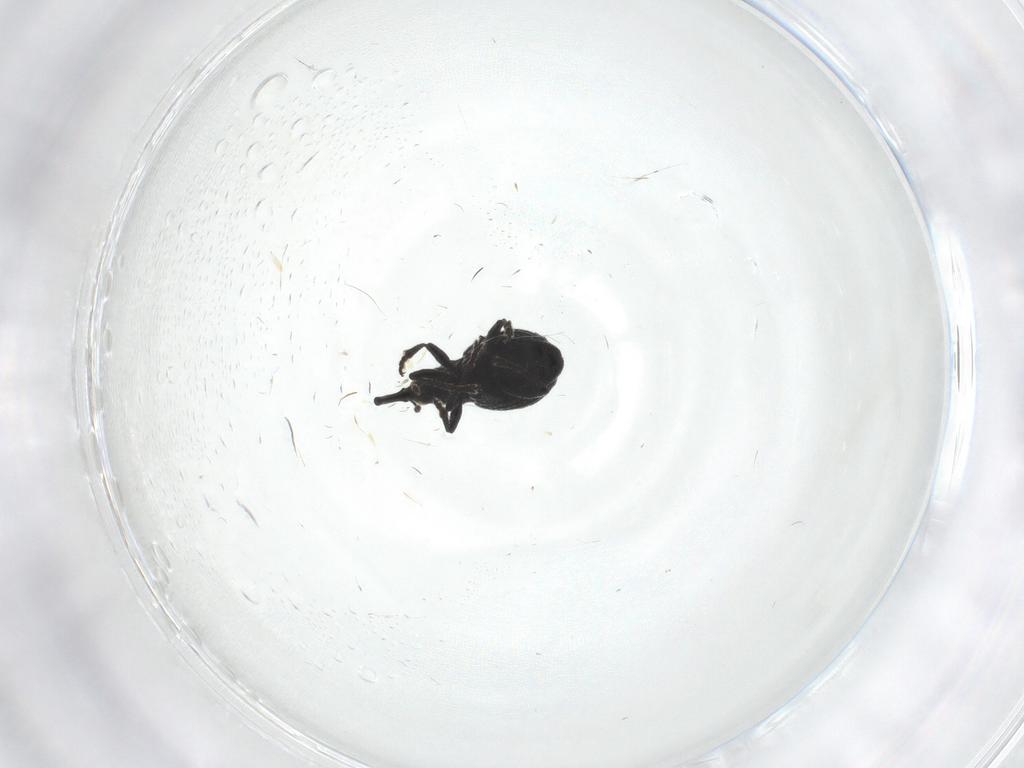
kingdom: Animalia
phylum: Arthropoda
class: Insecta
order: Coleoptera
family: Brentidae
